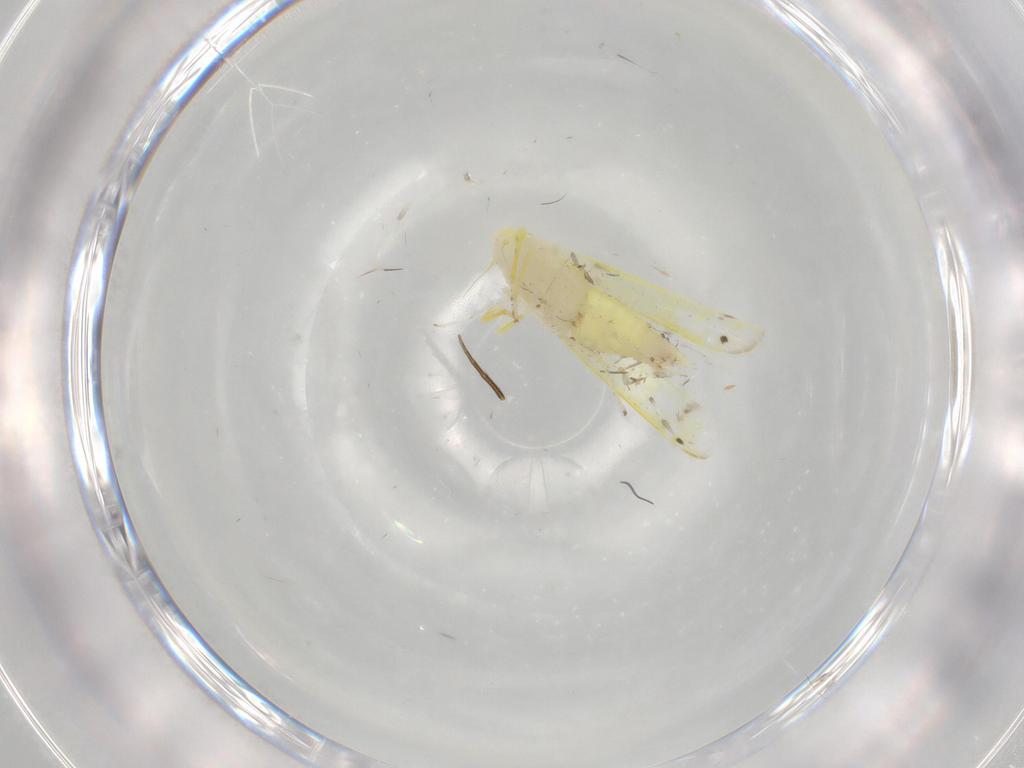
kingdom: Animalia
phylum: Arthropoda
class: Insecta
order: Hemiptera
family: Cicadellidae
